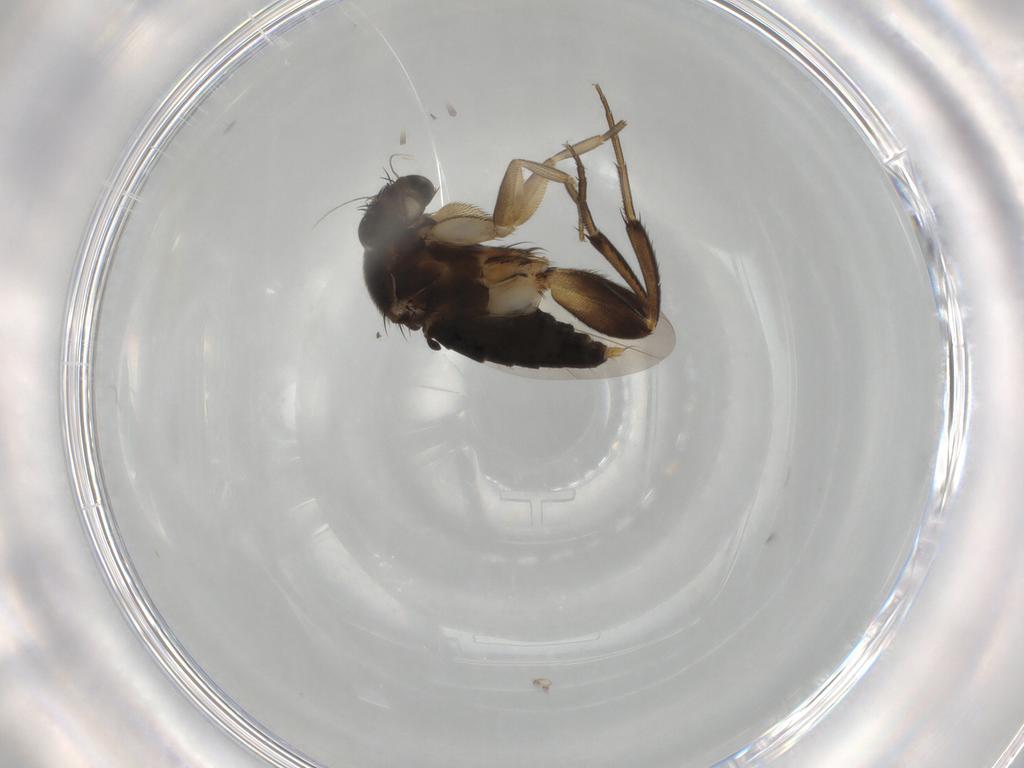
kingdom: Animalia
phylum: Arthropoda
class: Insecta
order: Diptera
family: Phoridae
